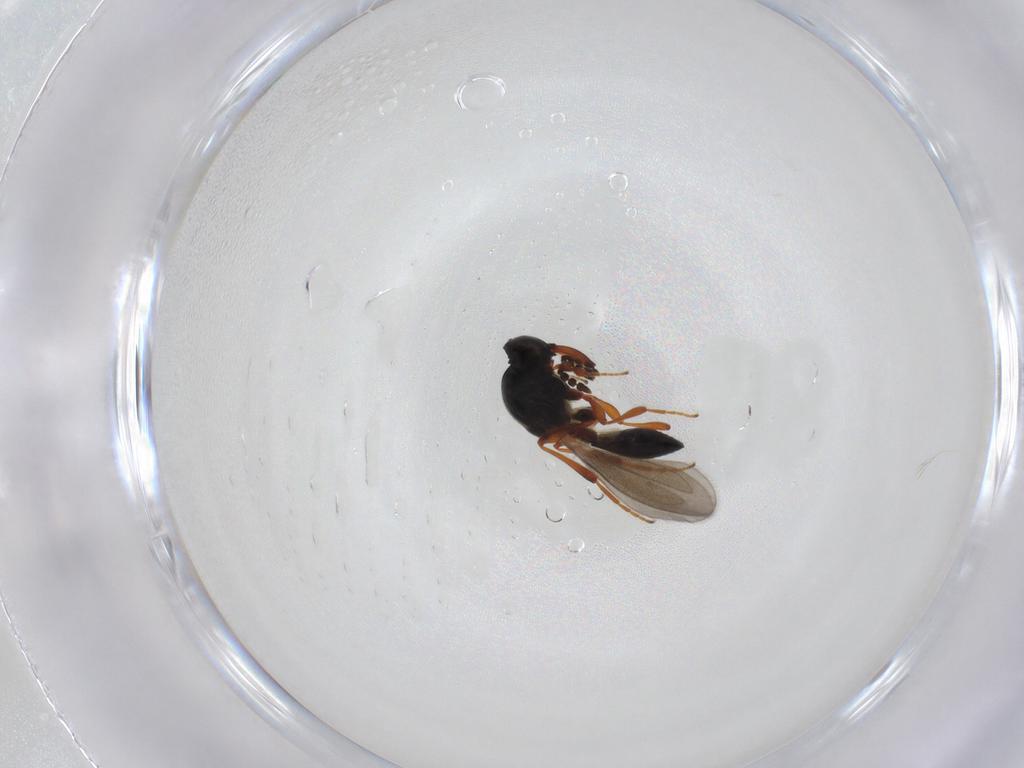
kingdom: Animalia
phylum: Arthropoda
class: Insecta
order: Hymenoptera
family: Platygastridae
